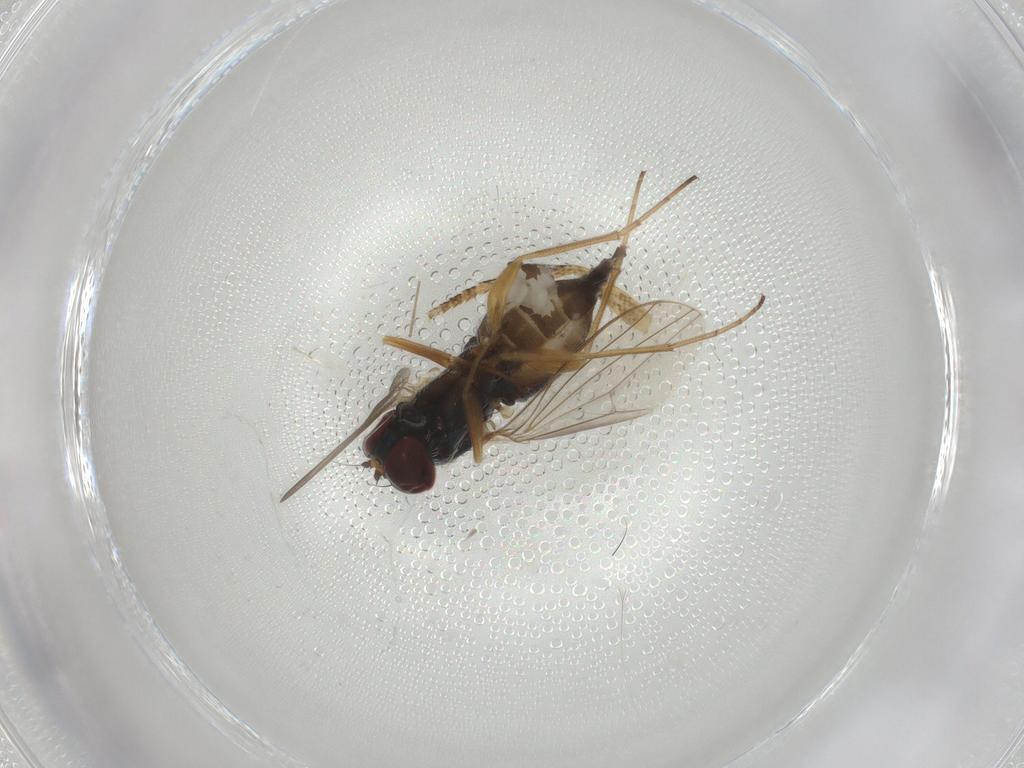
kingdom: Animalia
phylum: Arthropoda
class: Insecta
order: Diptera
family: Dolichopodidae
